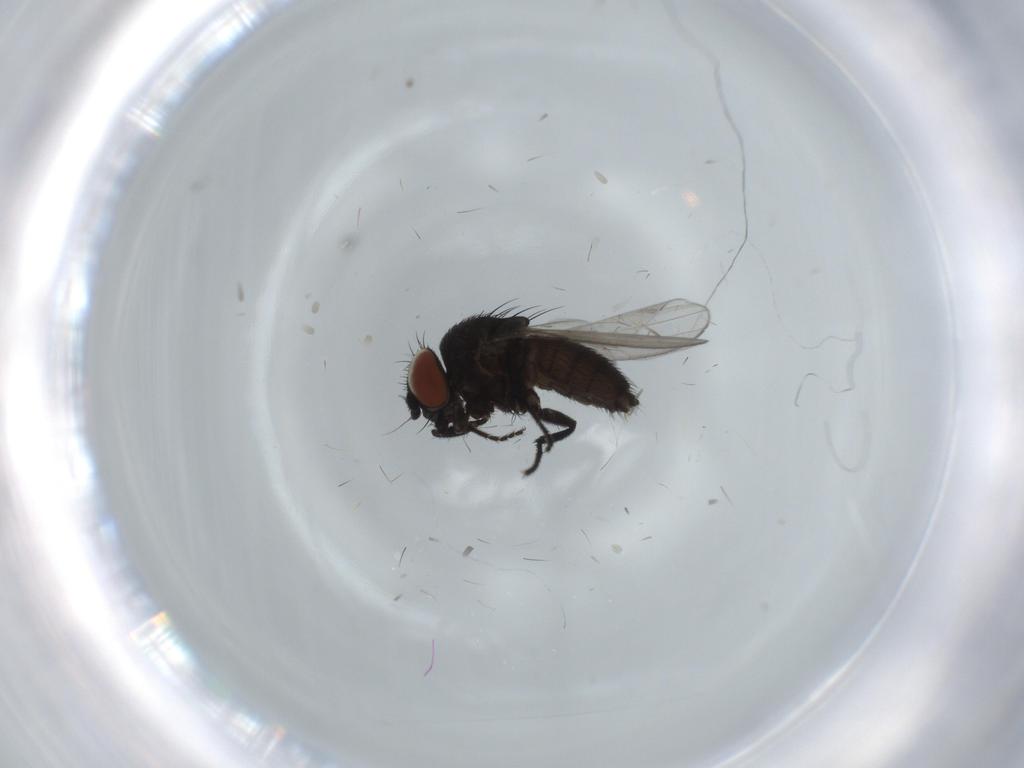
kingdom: Animalia
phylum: Arthropoda
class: Insecta
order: Diptera
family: Milichiidae
